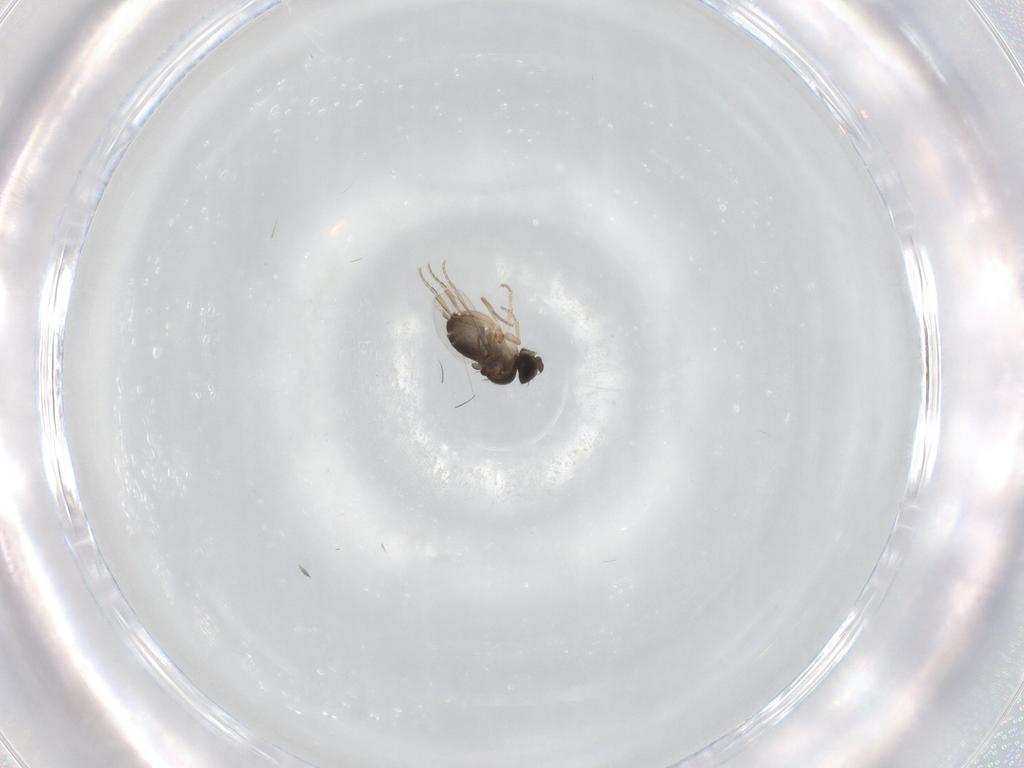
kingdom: Animalia
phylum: Arthropoda
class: Insecta
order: Diptera
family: Phoridae
